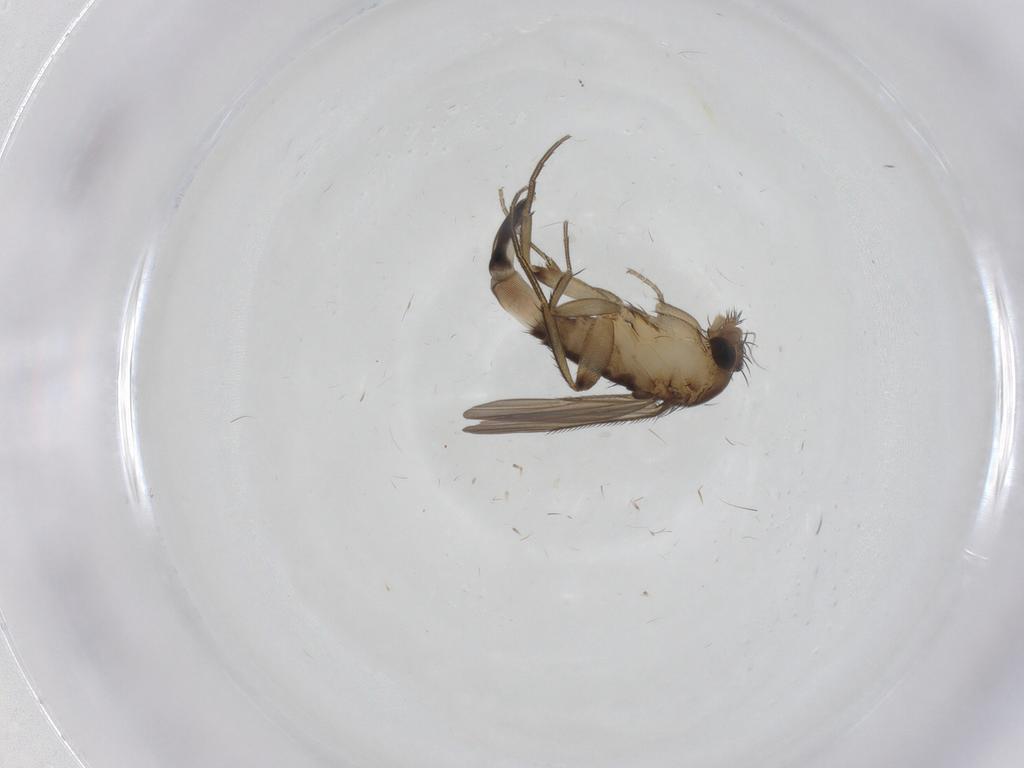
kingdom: Animalia
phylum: Arthropoda
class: Insecta
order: Diptera
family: Phoridae
